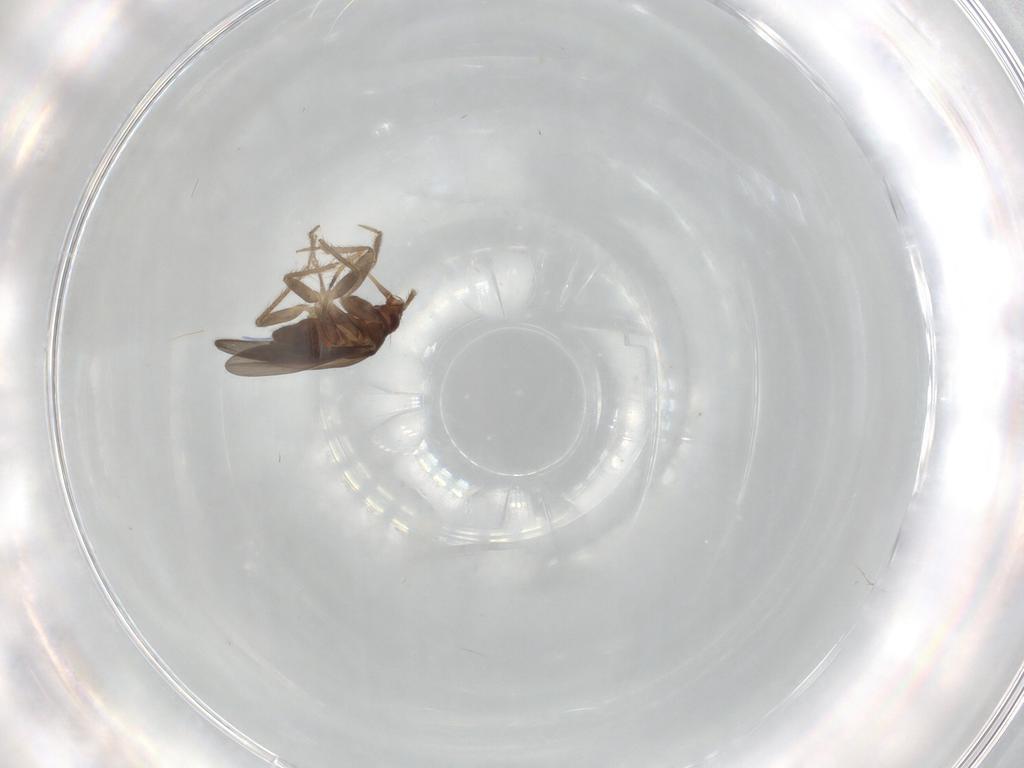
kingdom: Animalia
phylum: Arthropoda
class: Insecta
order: Hemiptera
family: Ceratocombidae
